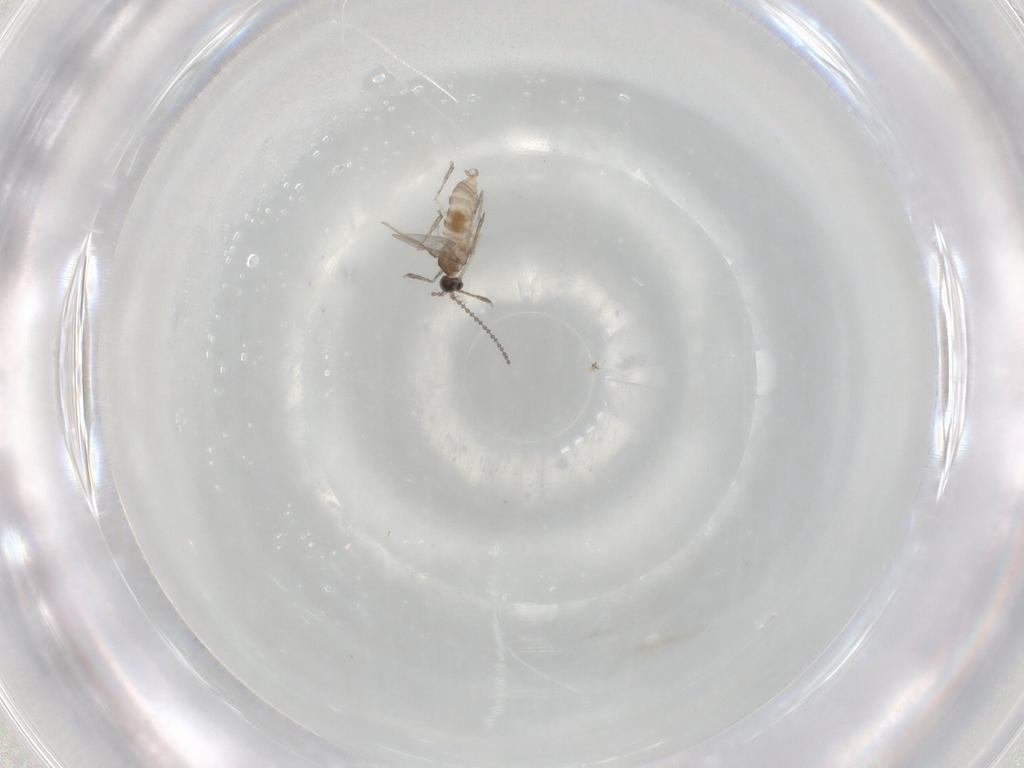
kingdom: Animalia
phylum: Arthropoda
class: Insecta
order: Diptera
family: Cecidomyiidae
